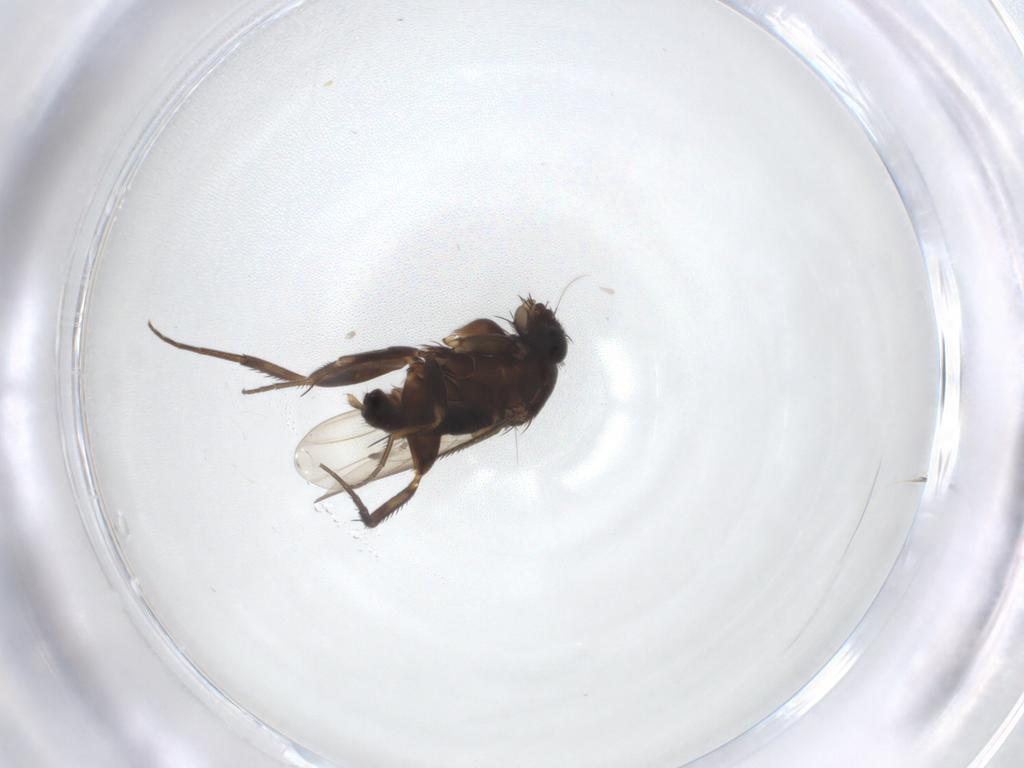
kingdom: Animalia
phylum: Arthropoda
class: Insecta
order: Diptera
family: Phoridae
